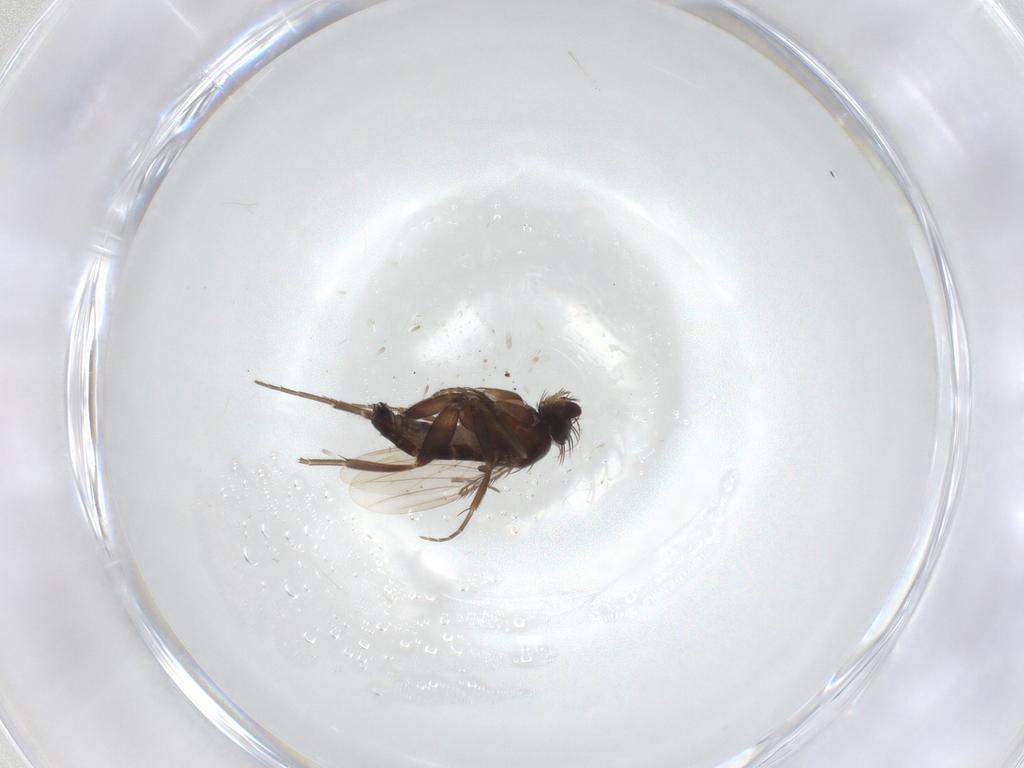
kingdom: Animalia
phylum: Arthropoda
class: Insecta
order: Diptera
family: Phoridae
